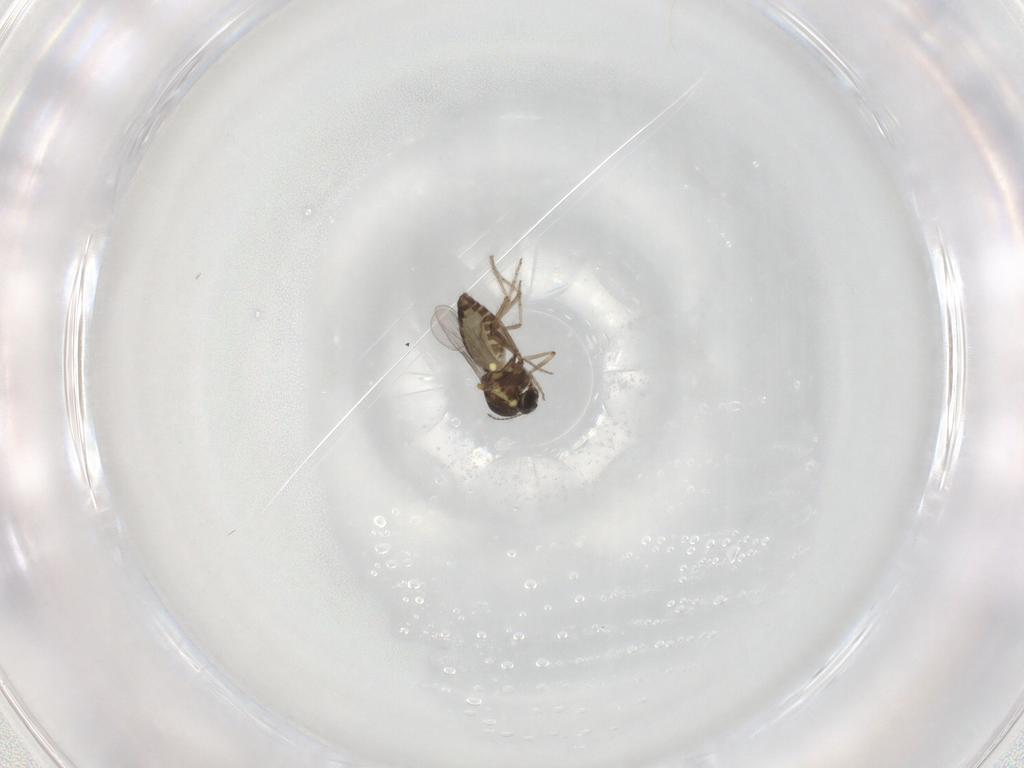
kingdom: Animalia
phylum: Arthropoda
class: Insecta
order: Diptera
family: Ceratopogonidae
